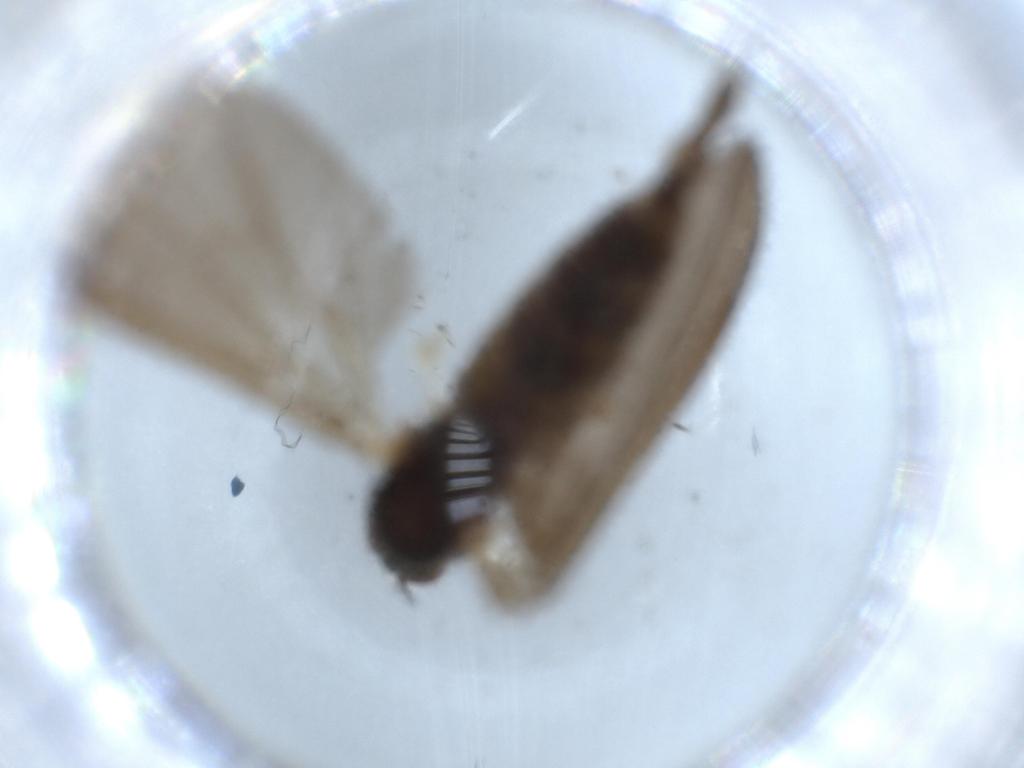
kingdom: Animalia
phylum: Arthropoda
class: Insecta
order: Diptera
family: Empididae
